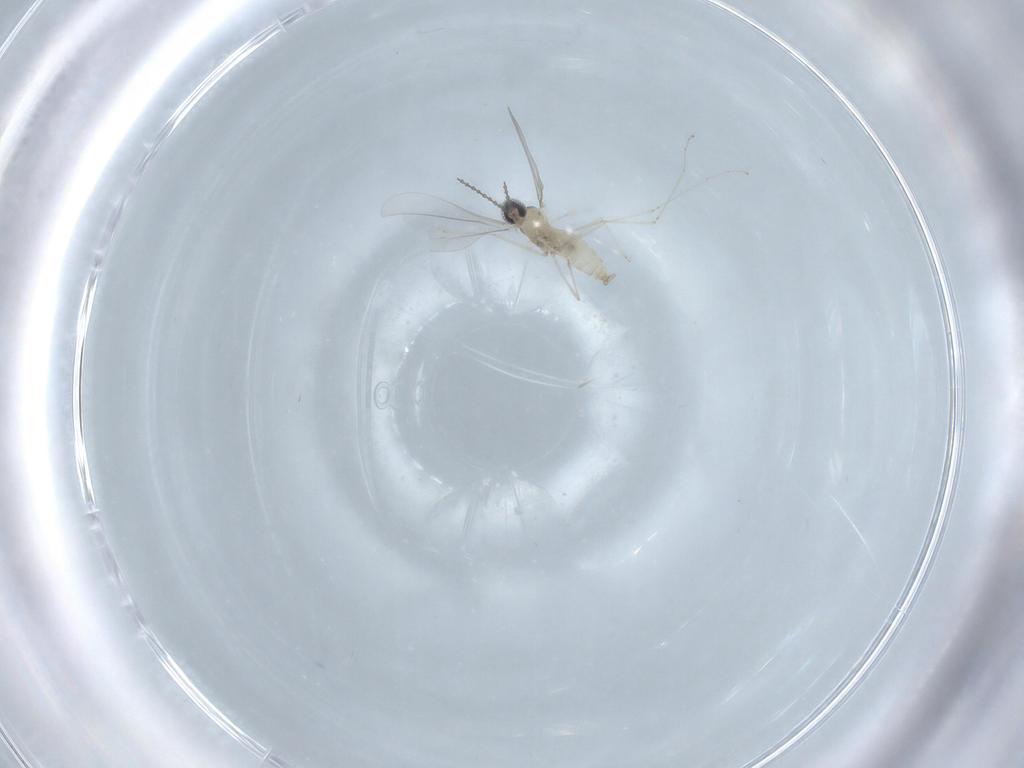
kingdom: Animalia
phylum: Arthropoda
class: Insecta
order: Diptera
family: Cecidomyiidae
